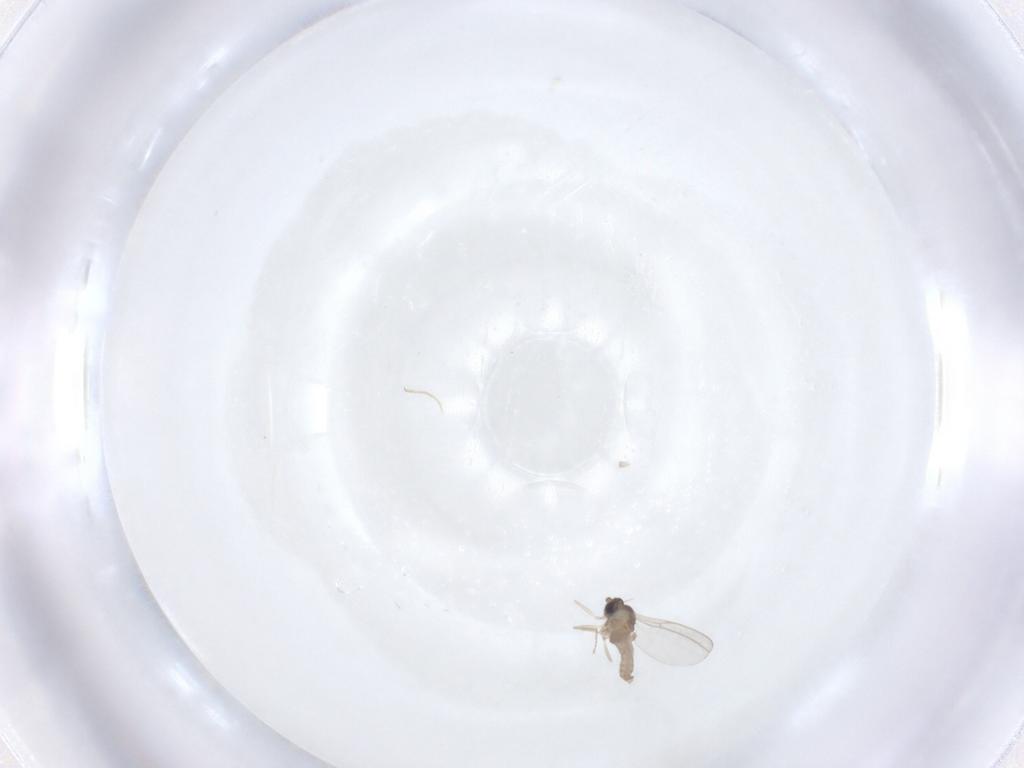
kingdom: Animalia
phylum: Arthropoda
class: Insecta
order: Diptera
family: Cecidomyiidae
